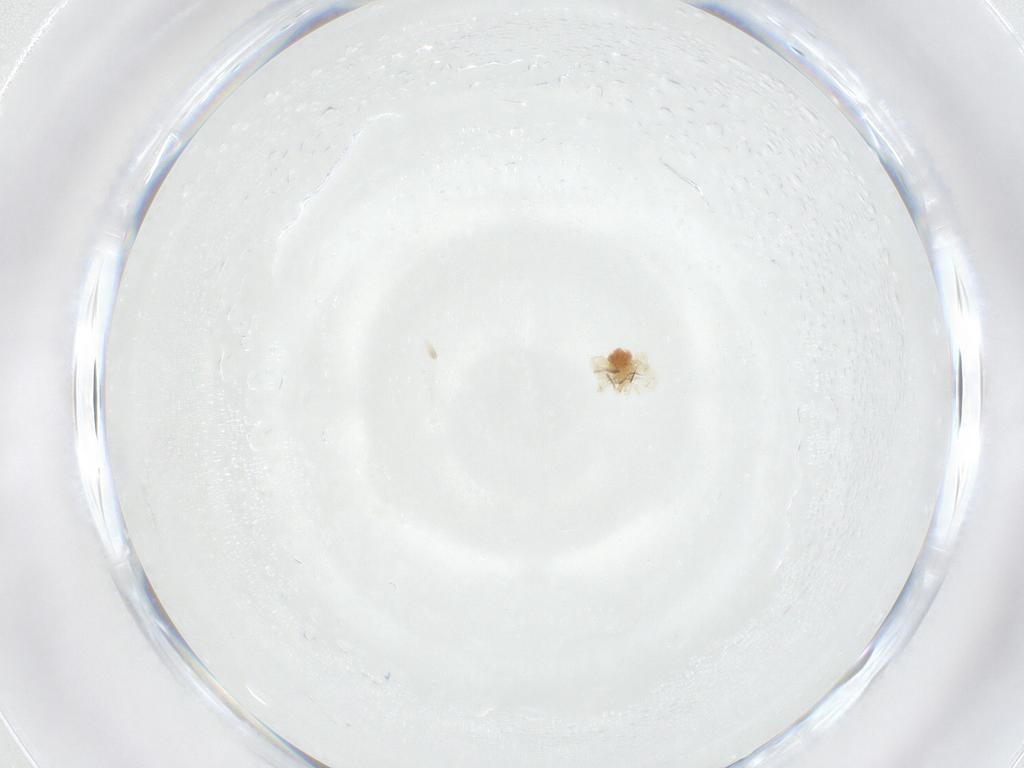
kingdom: Animalia
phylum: Arthropoda
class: Arachnida
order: Trombidiformes
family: Anystidae
